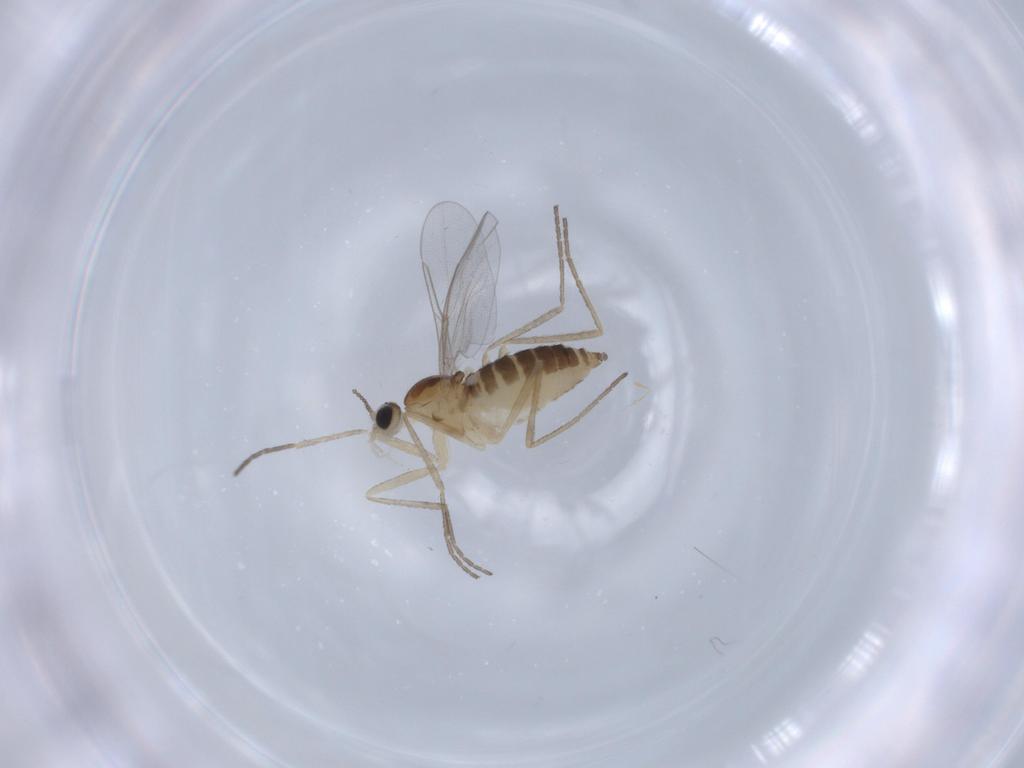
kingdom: Animalia
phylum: Arthropoda
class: Insecta
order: Diptera
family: Cecidomyiidae
